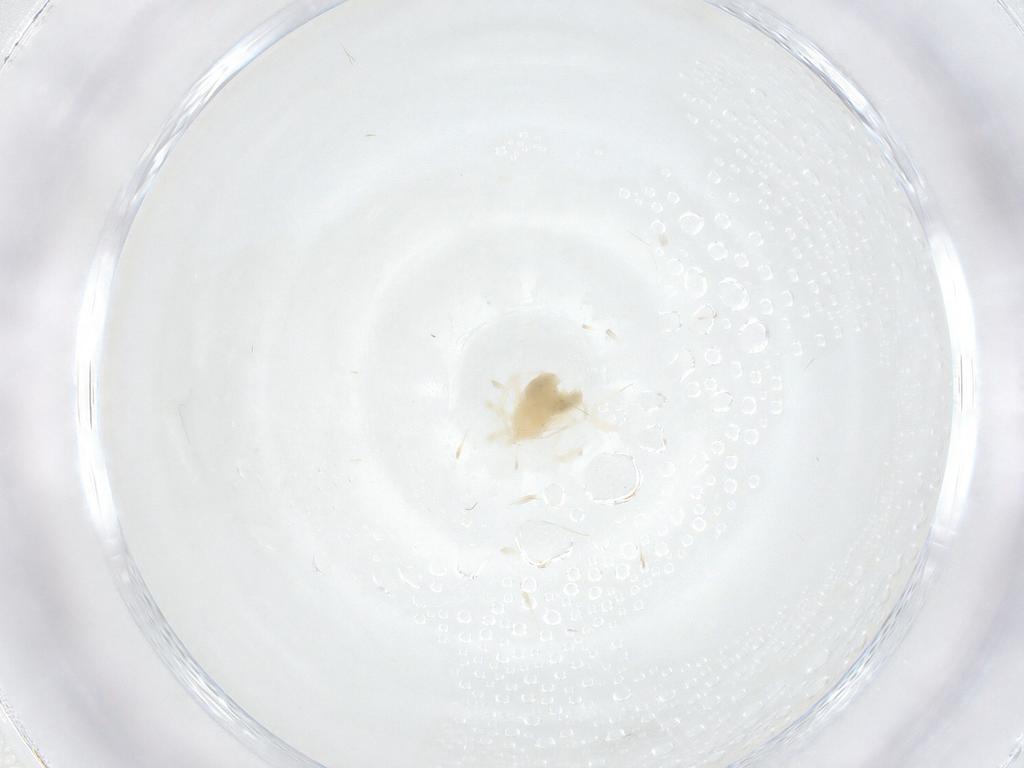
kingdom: Animalia
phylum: Arthropoda
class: Arachnida
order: Trombidiformes
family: Anystidae
